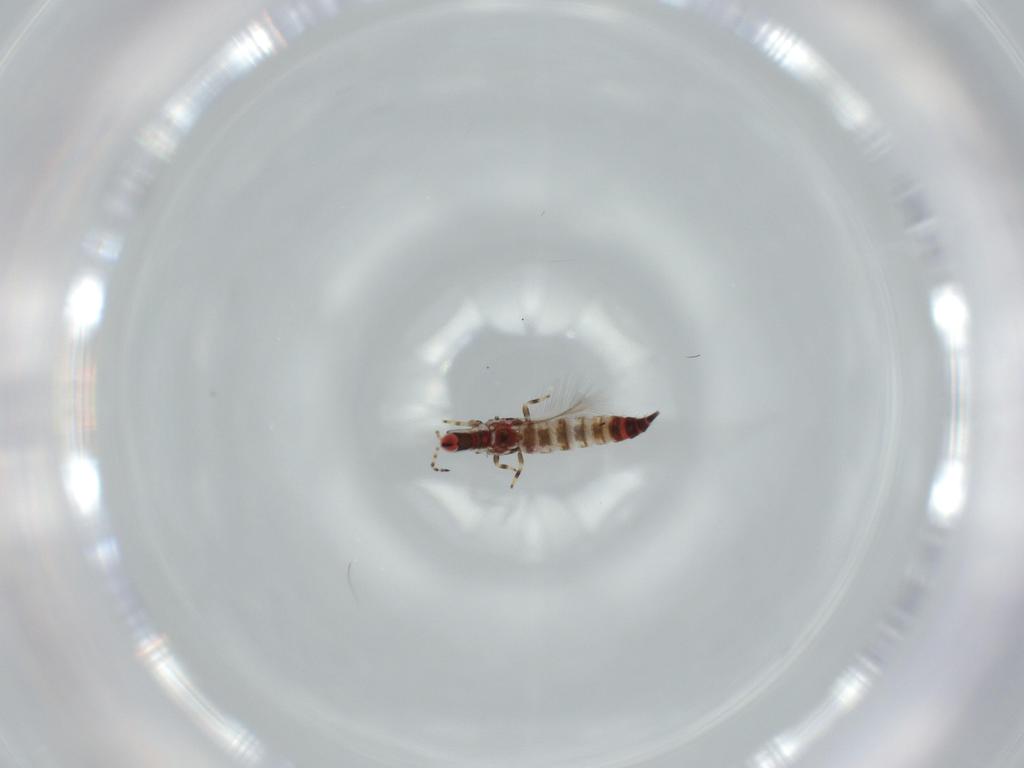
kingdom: Animalia
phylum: Arthropoda
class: Insecta
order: Thysanoptera
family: Phlaeothripidae
